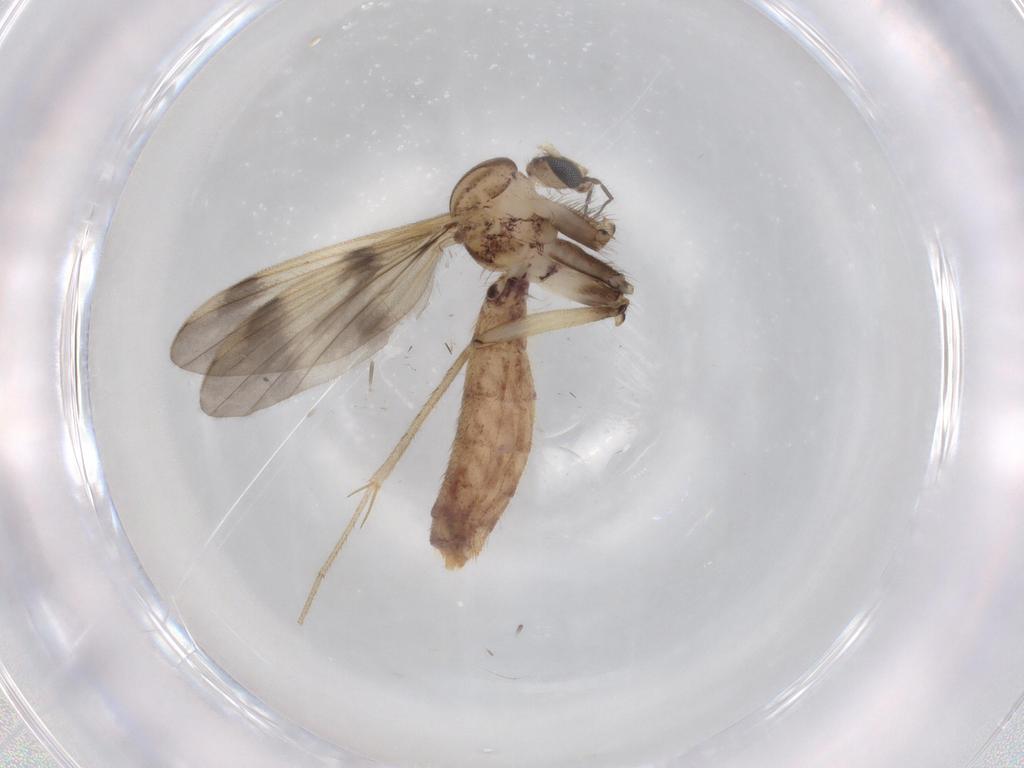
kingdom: Animalia
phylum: Arthropoda
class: Insecta
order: Diptera
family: Mycetophilidae
